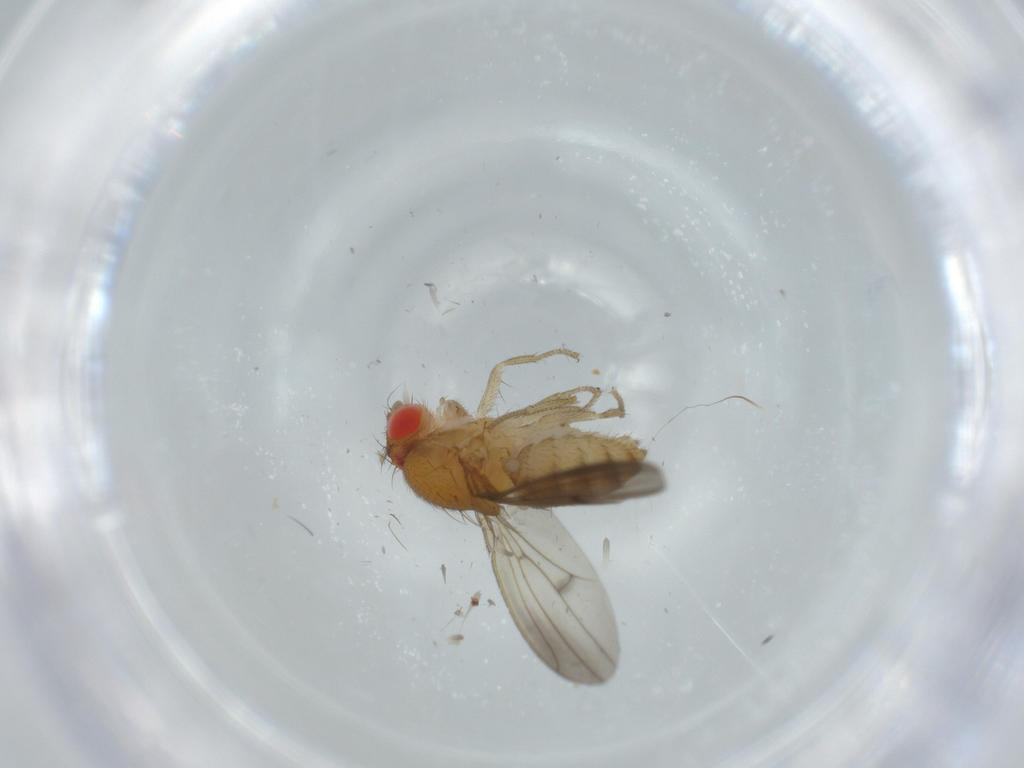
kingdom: Animalia
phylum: Arthropoda
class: Insecta
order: Diptera
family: Drosophilidae
